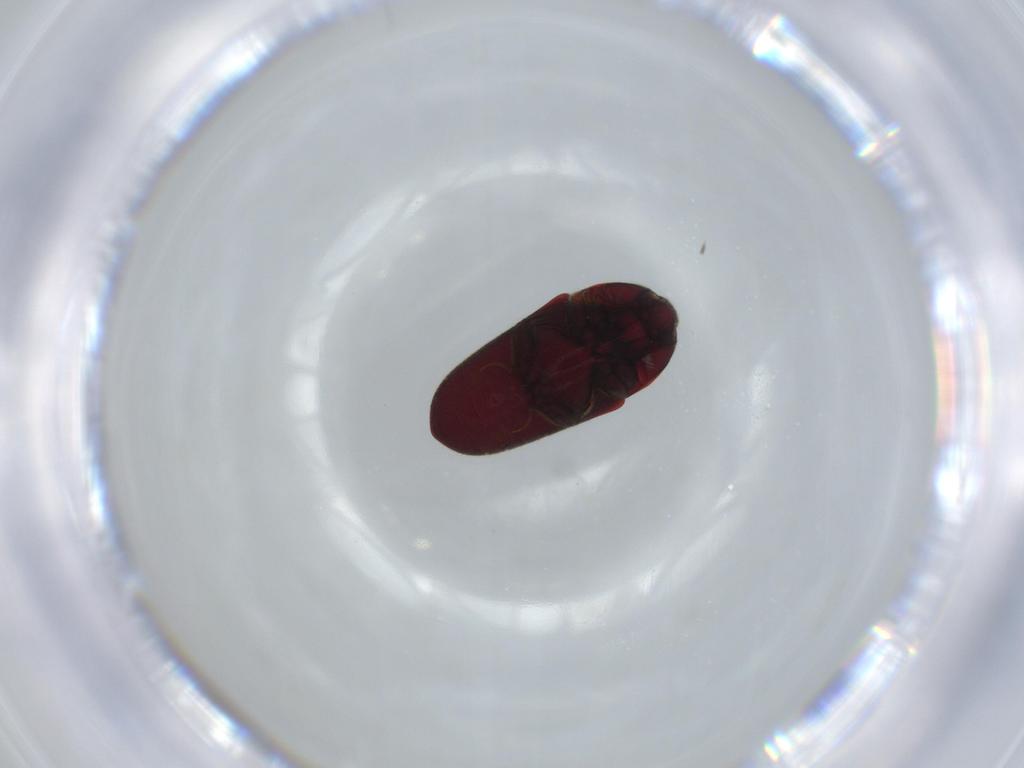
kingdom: Animalia
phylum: Arthropoda
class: Insecta
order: Coleoptera
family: Throscidae
